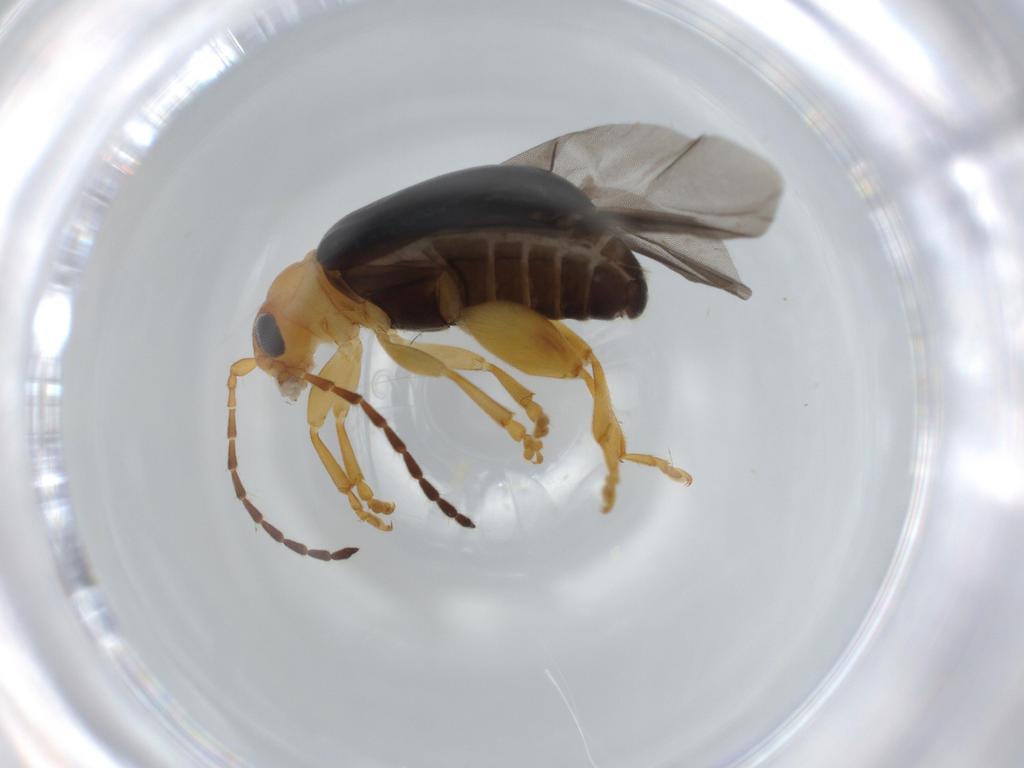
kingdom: Animalia
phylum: Arthropoda
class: Insecta
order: Coleoptera
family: Chrysomelidae
